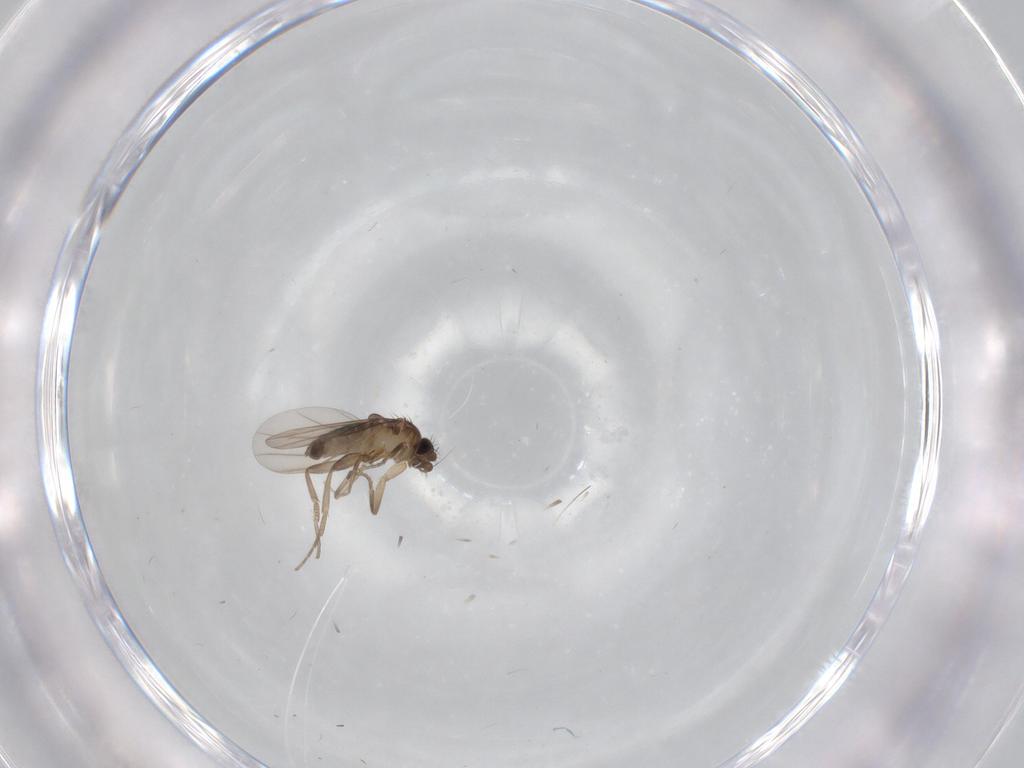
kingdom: Animalia
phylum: Arthropoda
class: Insecta
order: Diptera
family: Phoridae
